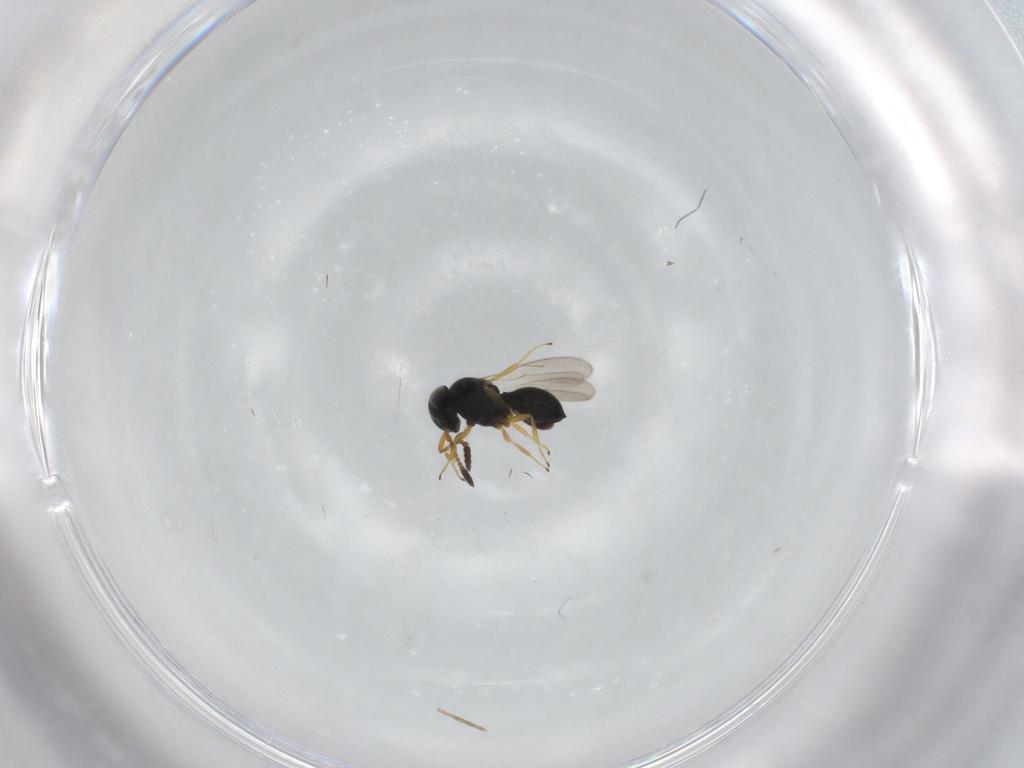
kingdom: Animalia
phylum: Arthropoda
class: Insecta
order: Hymenoptera
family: Scelionidae
